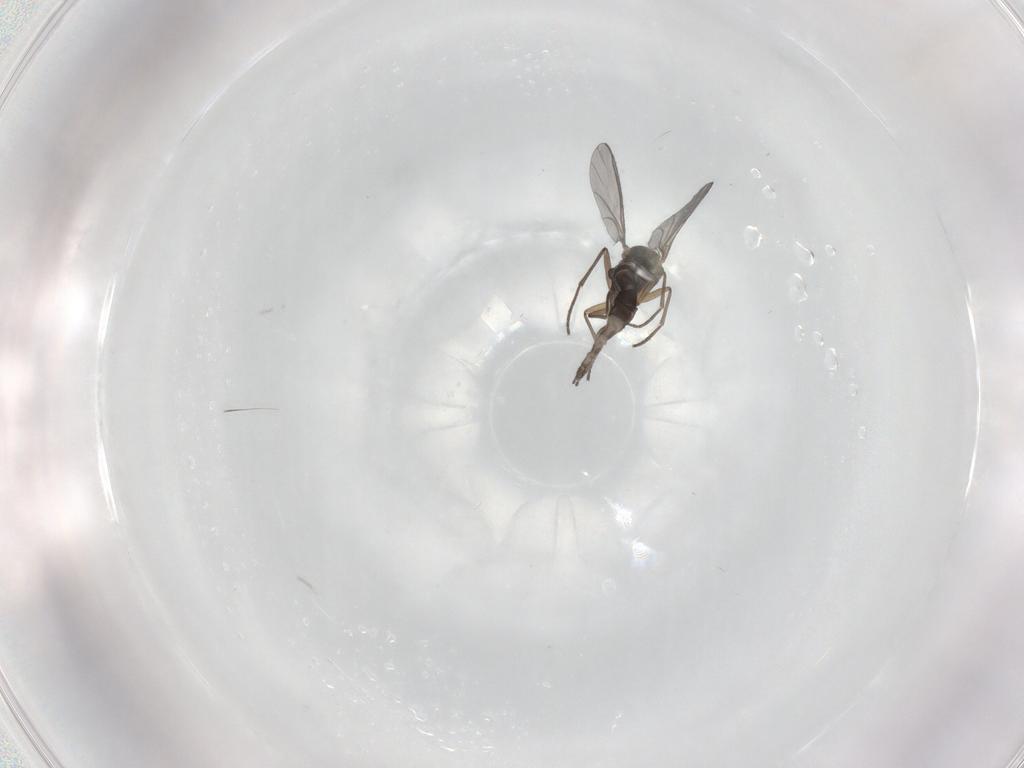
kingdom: Animalia
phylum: Arthropoda
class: Insecta
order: Diptera
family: Sciaridae
